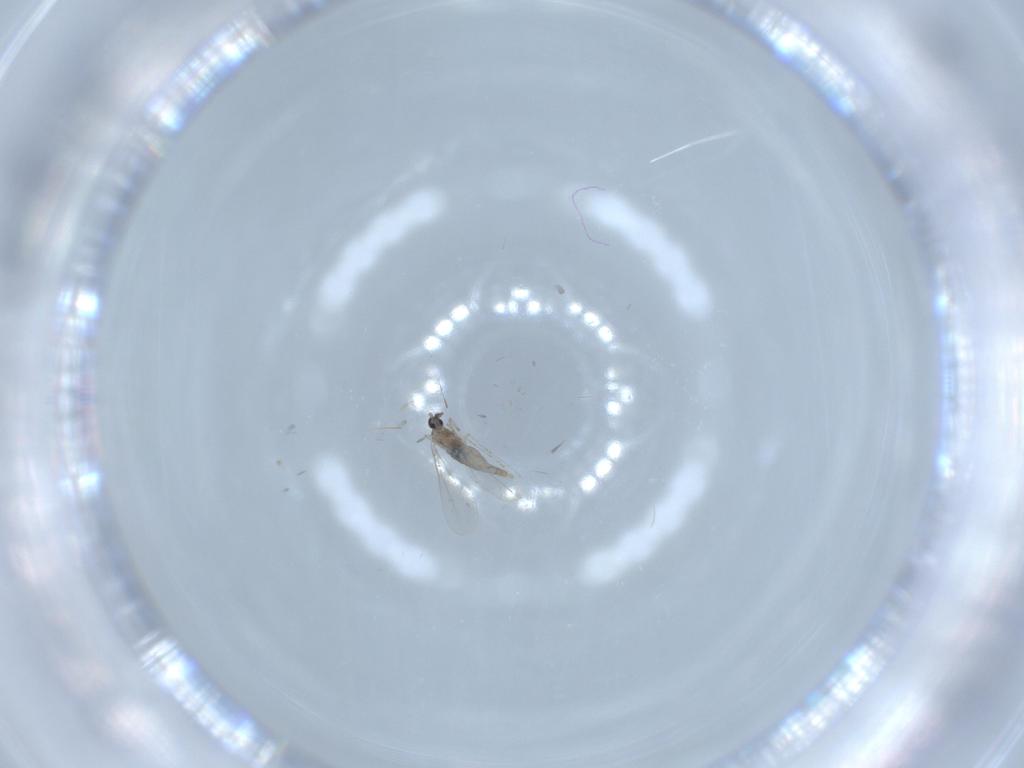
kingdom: Animalia
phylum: Arthropoda
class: Insecta
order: Diptera
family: Cecidomyiidae
